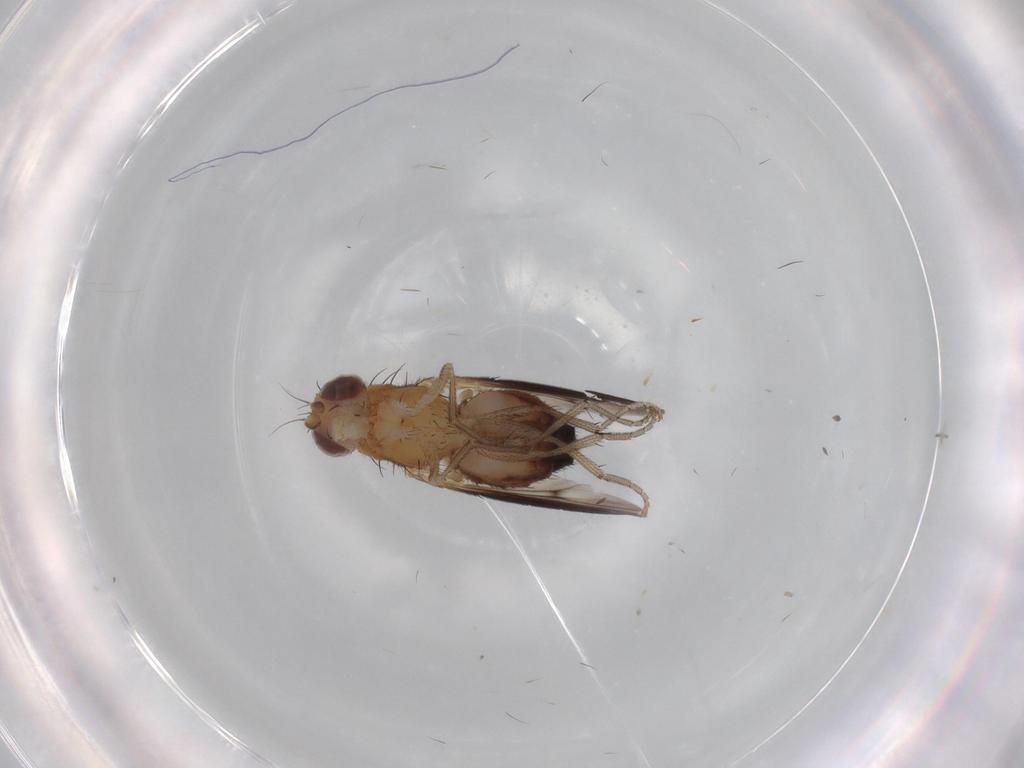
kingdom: Animalia
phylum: Arthropoda
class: Insecta
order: Diptera
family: Heleomyzidae
